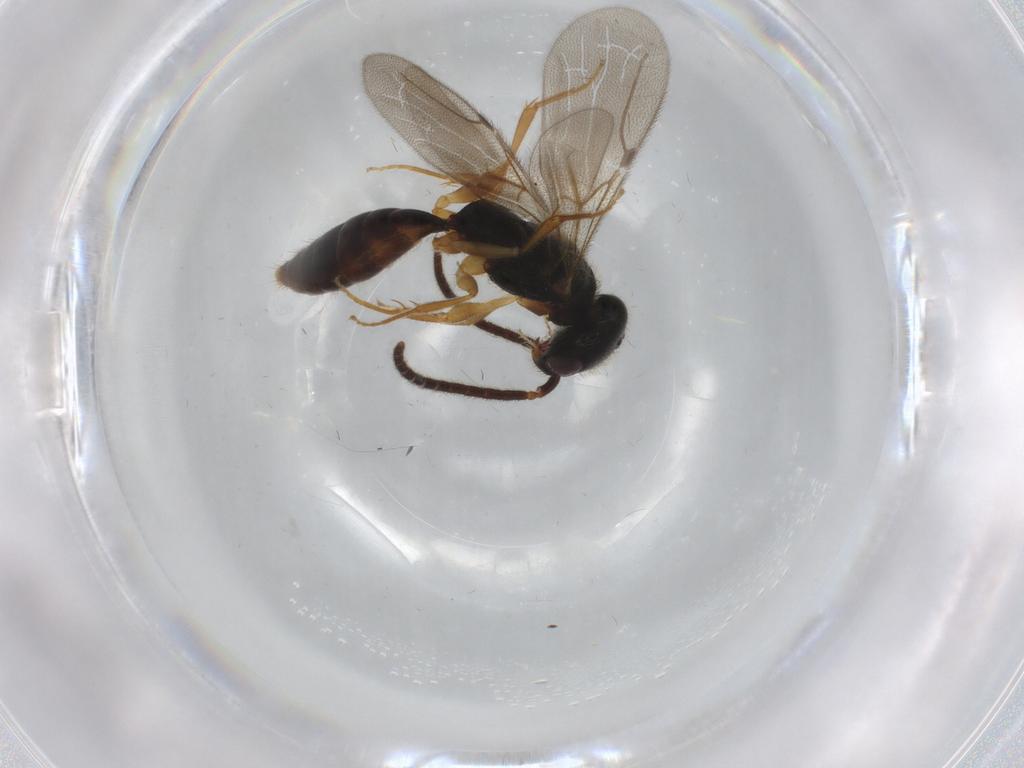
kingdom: Animalia
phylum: Arthropoda
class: Insecta
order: Hymenoptera
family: Bethylidae
